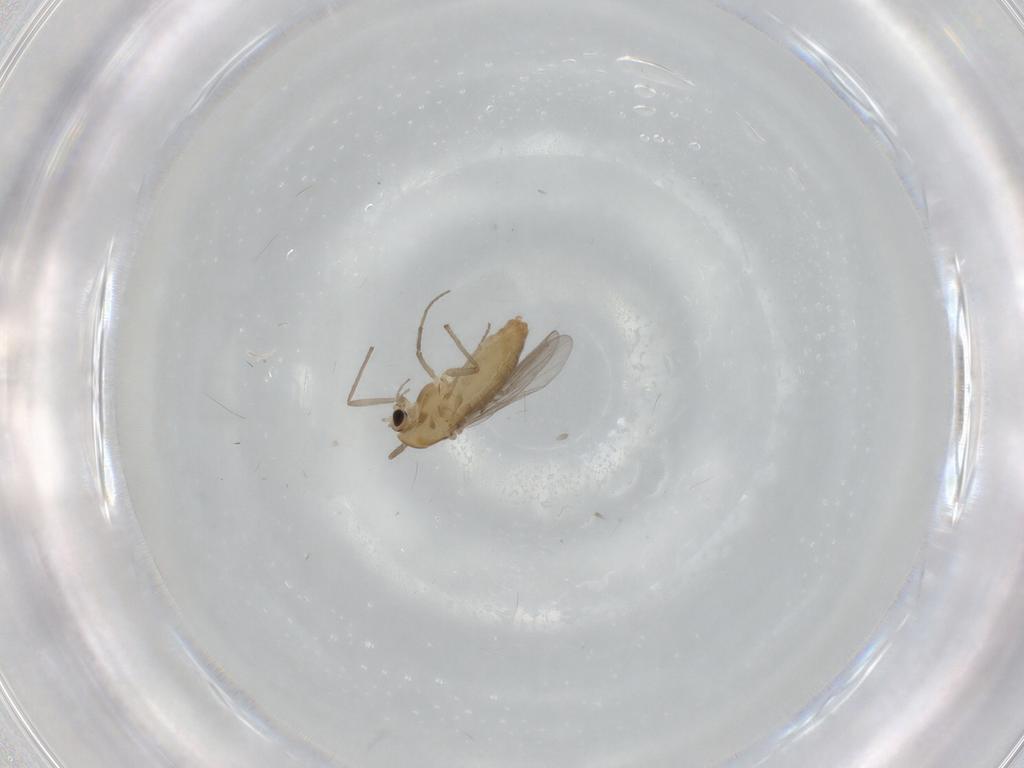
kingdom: Animalia
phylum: Arthropoda
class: Insecta
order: Diptera
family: Chironomidae
